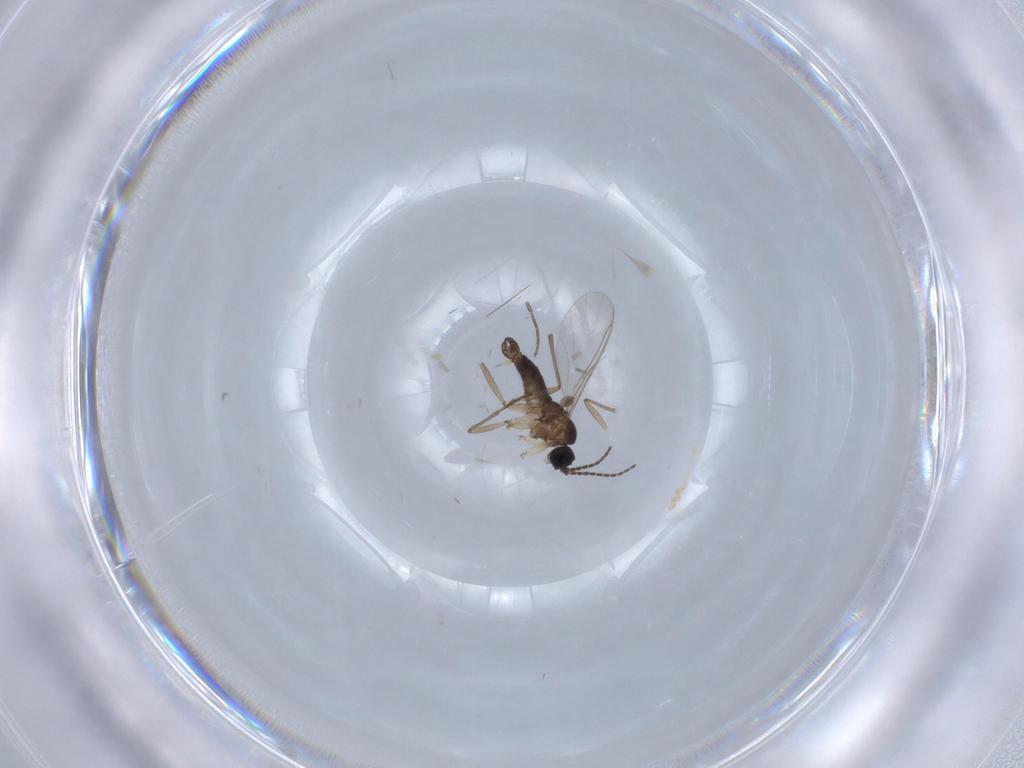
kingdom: Animalia
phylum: Arthropoda
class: Insecta
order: Diptera
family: Sciaridae
